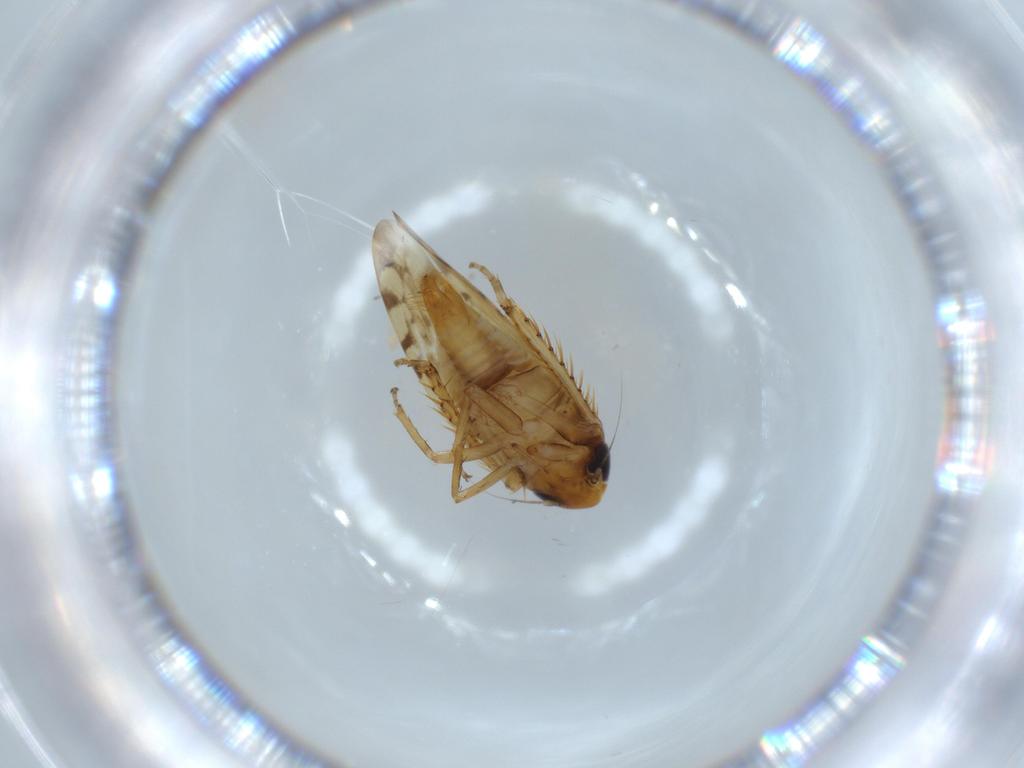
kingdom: Animalia
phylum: Arthropoda
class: Insecta
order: Hemiptera
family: Cicadellidae
